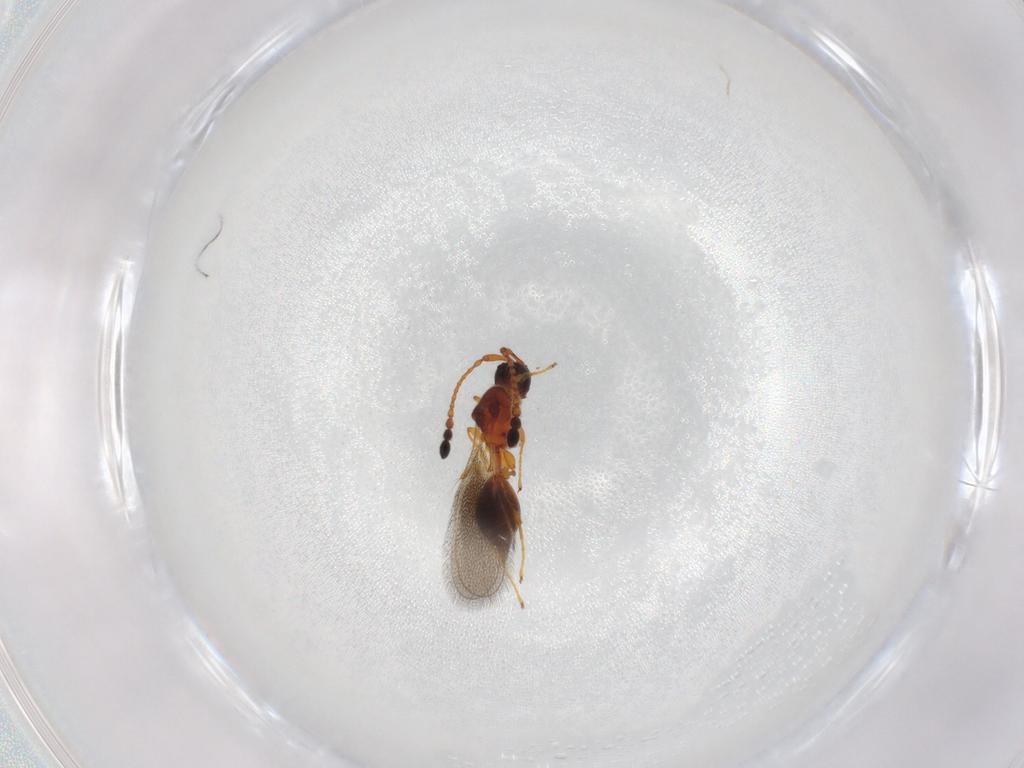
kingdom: Animalia
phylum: Arthropoda
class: Insecta
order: Hymenoptera
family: Diapriidae
